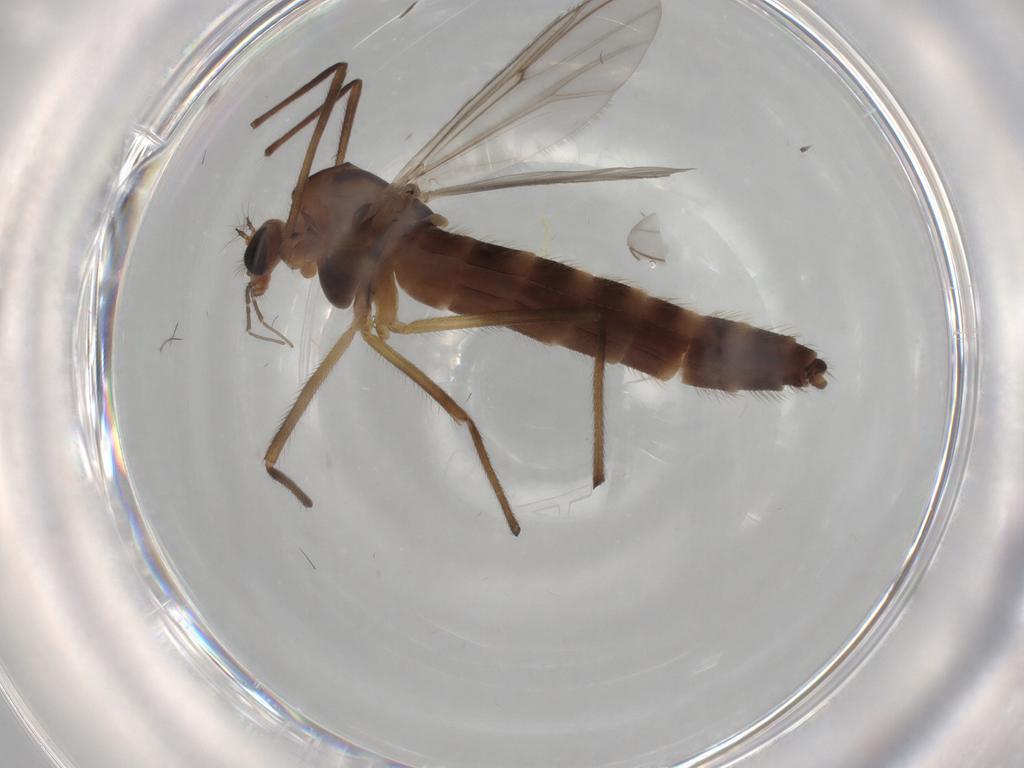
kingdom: Animalia
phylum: Arthropoda
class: Insecta
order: Diptera
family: Chironomidae
